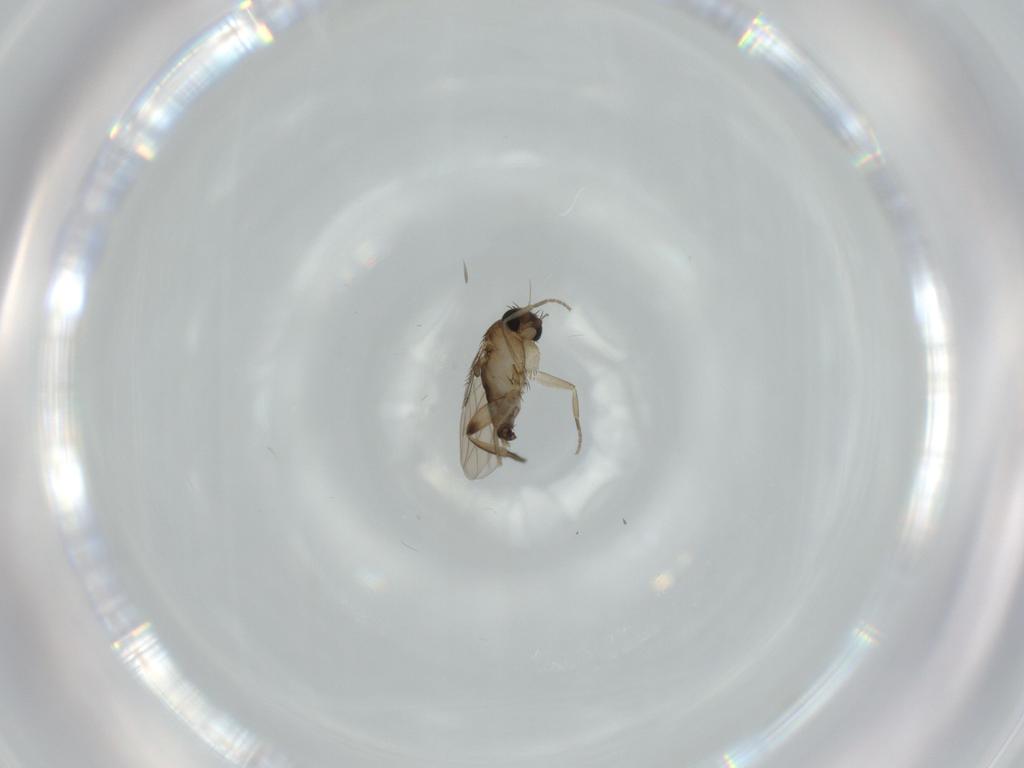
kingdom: Animalia
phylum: Arthropoda
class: Insecta
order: Diptera
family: Phoridae
